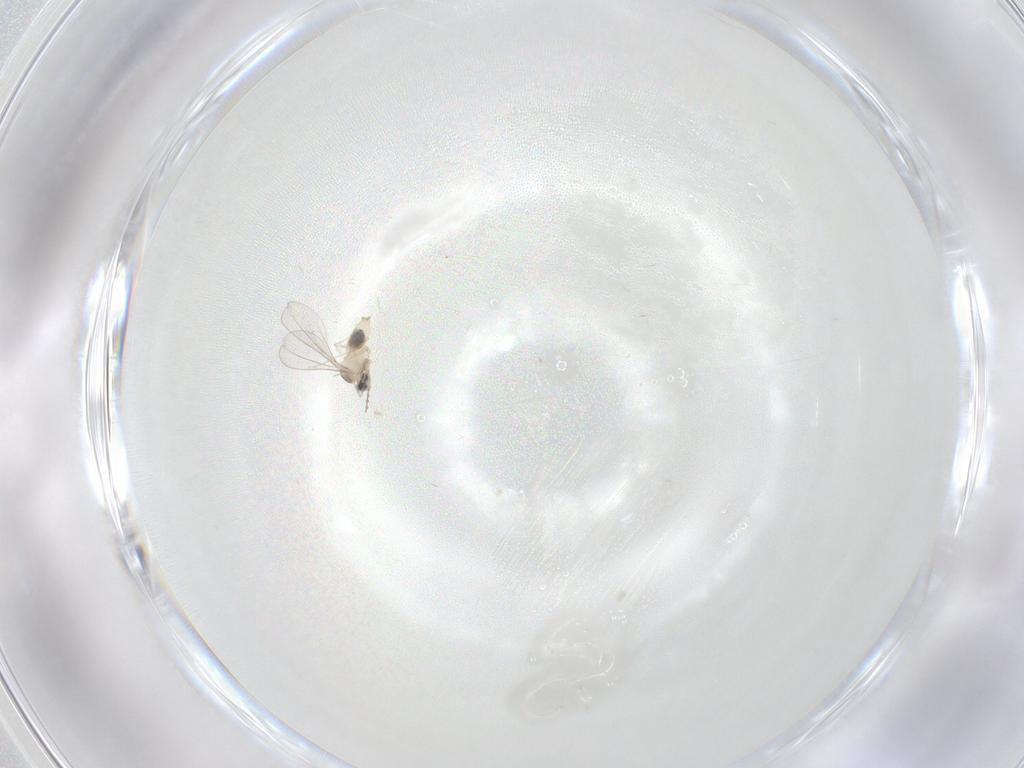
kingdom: Animalia
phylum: Arthropoda
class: Insecta
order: Diptera
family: Cecidomyiidae
